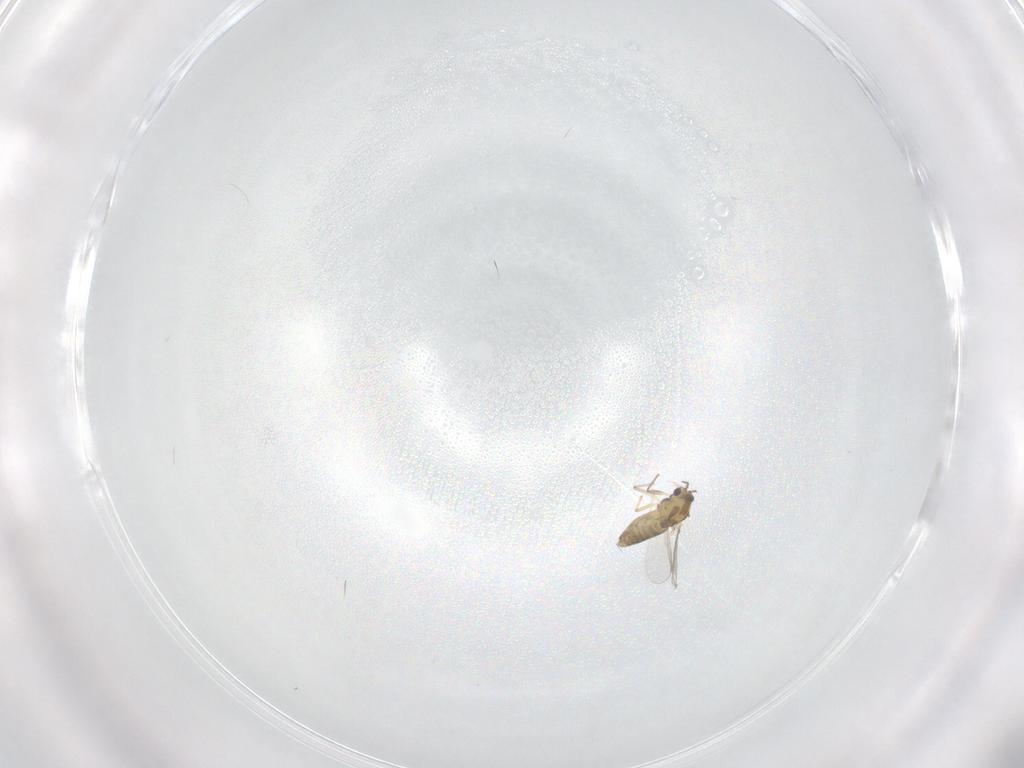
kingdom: Animalia
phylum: Arthropoda
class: Insecta
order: Diptera
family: Chironomidae
